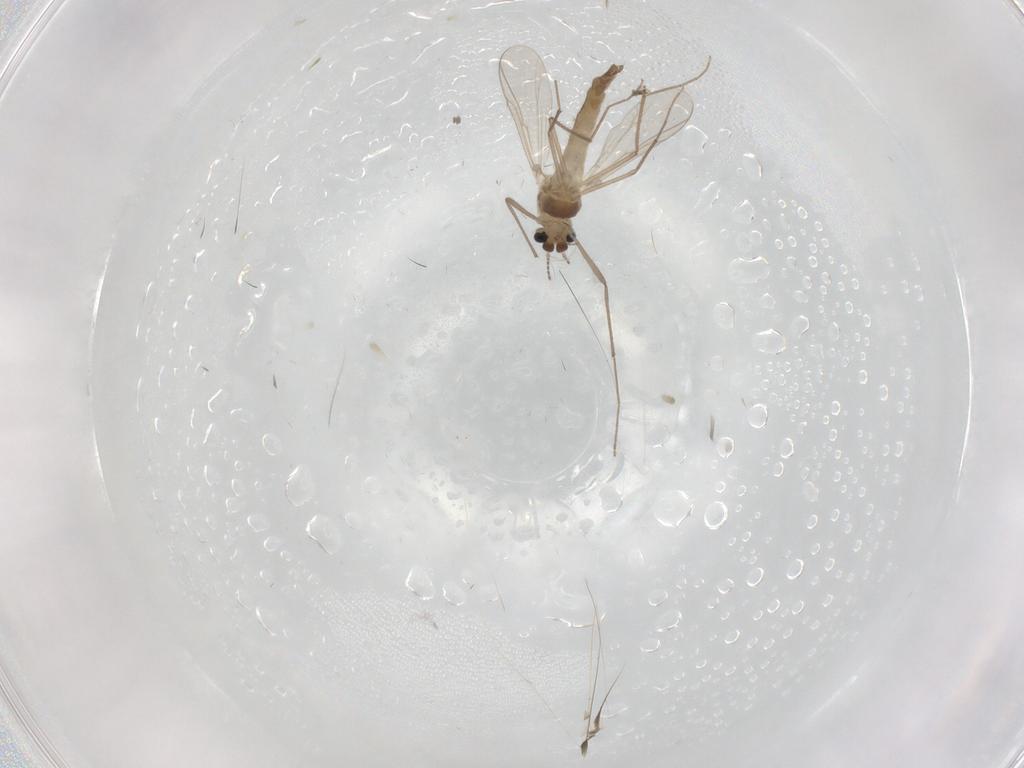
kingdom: Animalia
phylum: Arthropoda
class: Insecta
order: Diptera
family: Chironomidae
